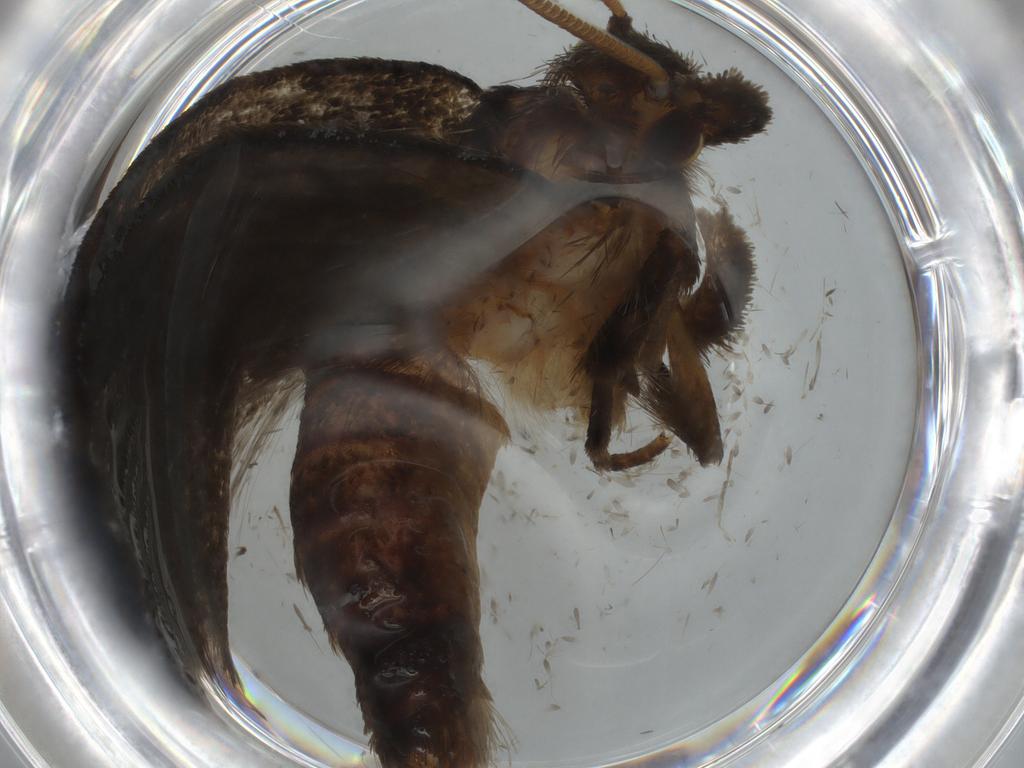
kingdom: Animalia
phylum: Arthropoda
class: Insecta
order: Lepidoptera
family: Tineidae
